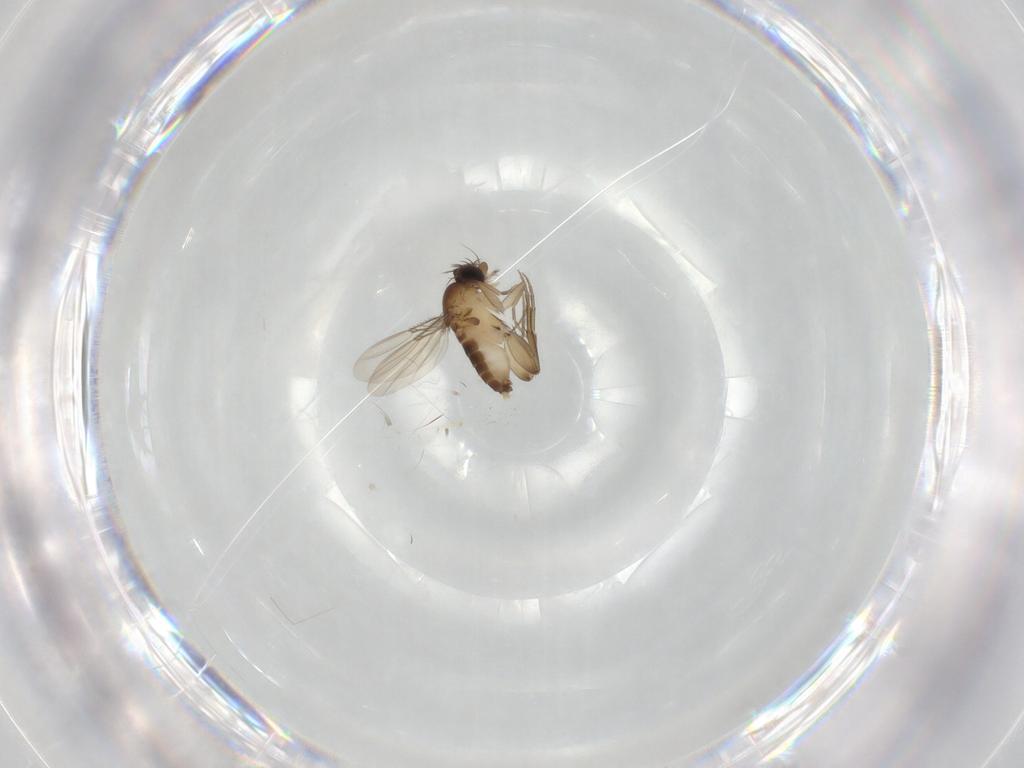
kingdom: Animalia
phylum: Arthropoda
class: Insecta
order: Diptera
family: Phoridae
